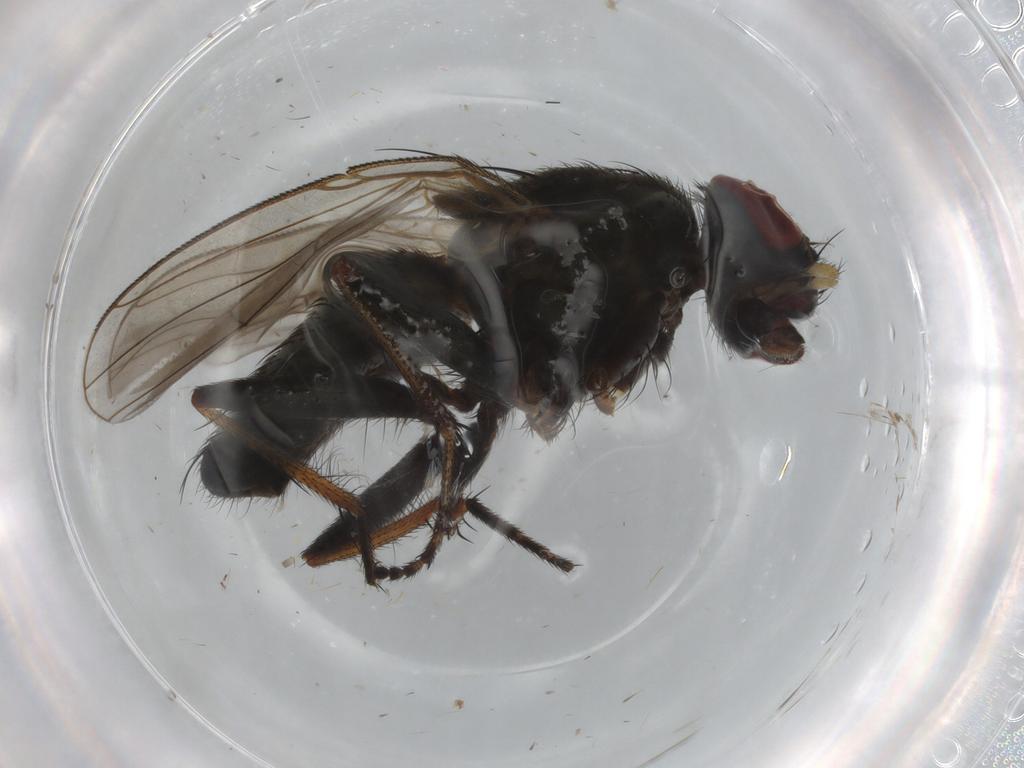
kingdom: Animalia
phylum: Arthropoda
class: Insecta
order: Diptera
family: Muscidae
